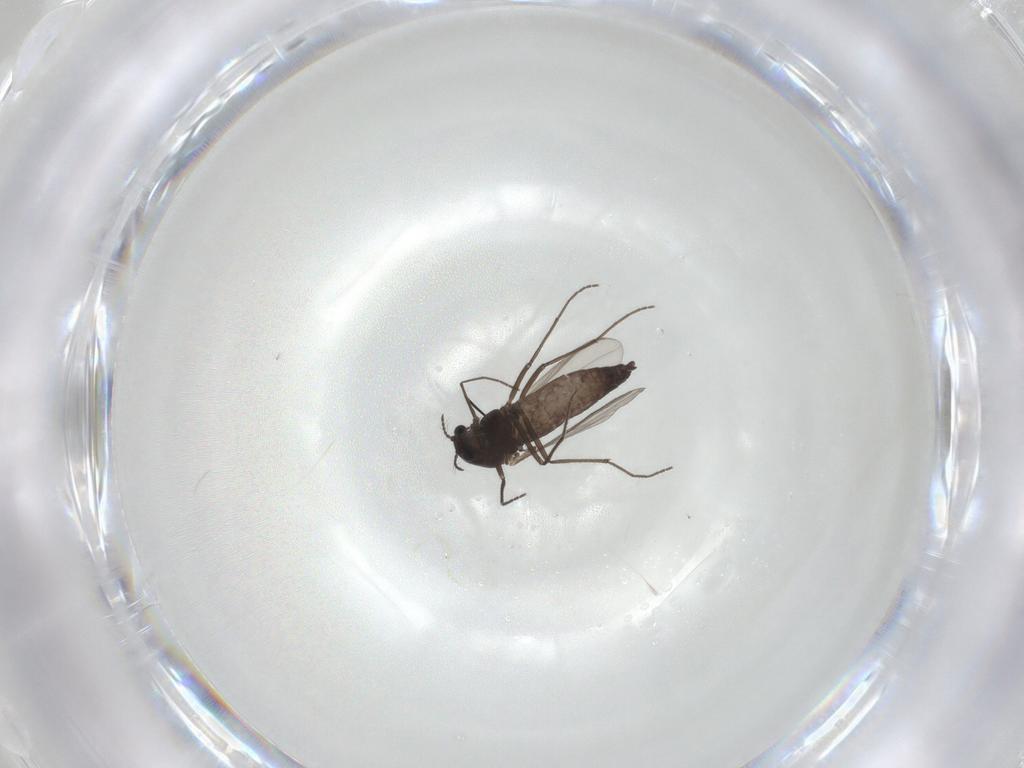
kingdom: Animalia
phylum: Arthropoda
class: Insecta
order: Diptera
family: Chironomidae
